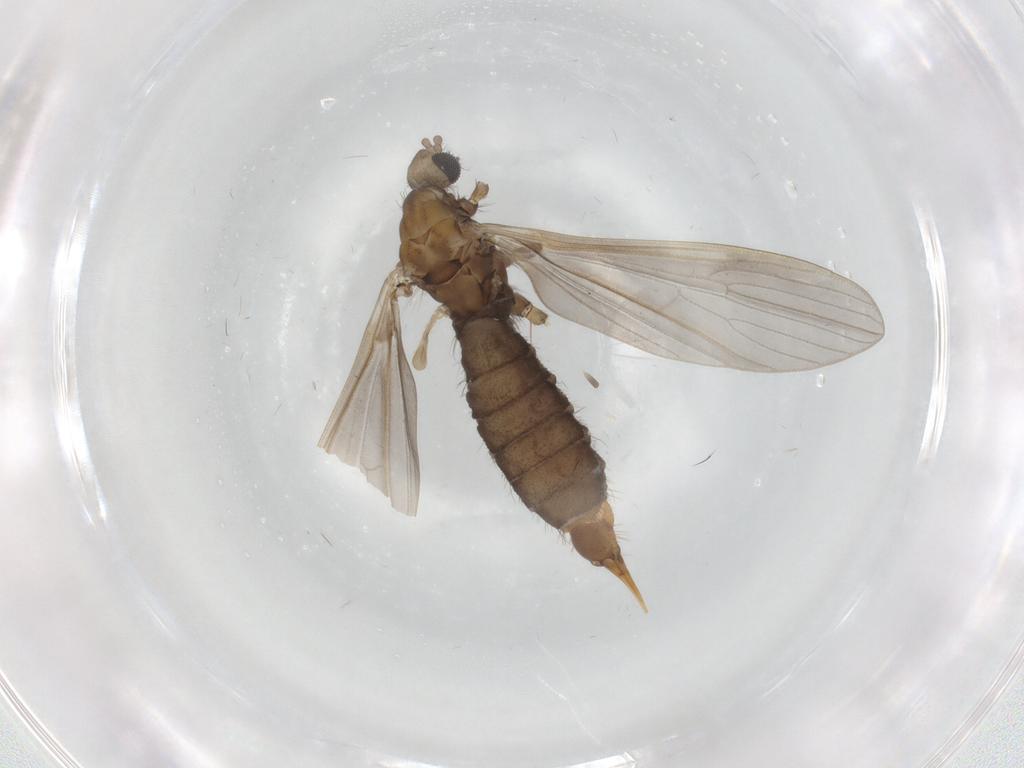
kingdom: Animalia
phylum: Arthropoda
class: Insecta
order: Diptera
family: Limoniidae
